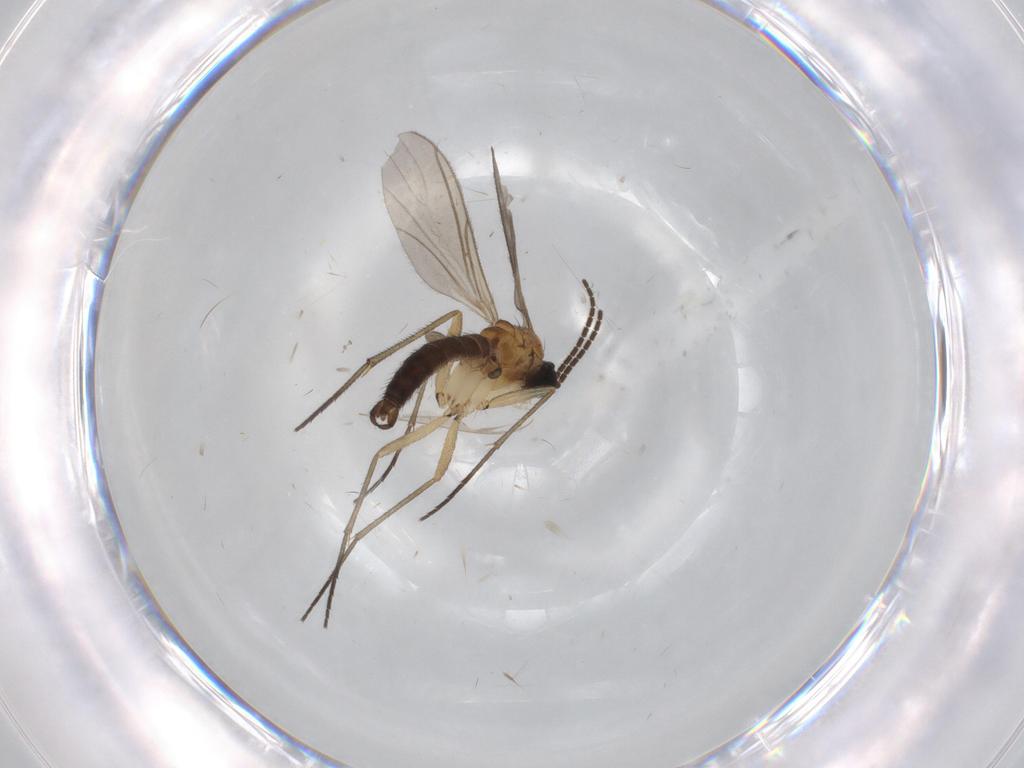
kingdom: Animalia
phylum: Arthropoda
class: Insecta
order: Diptera
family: Cecidomyiidae
